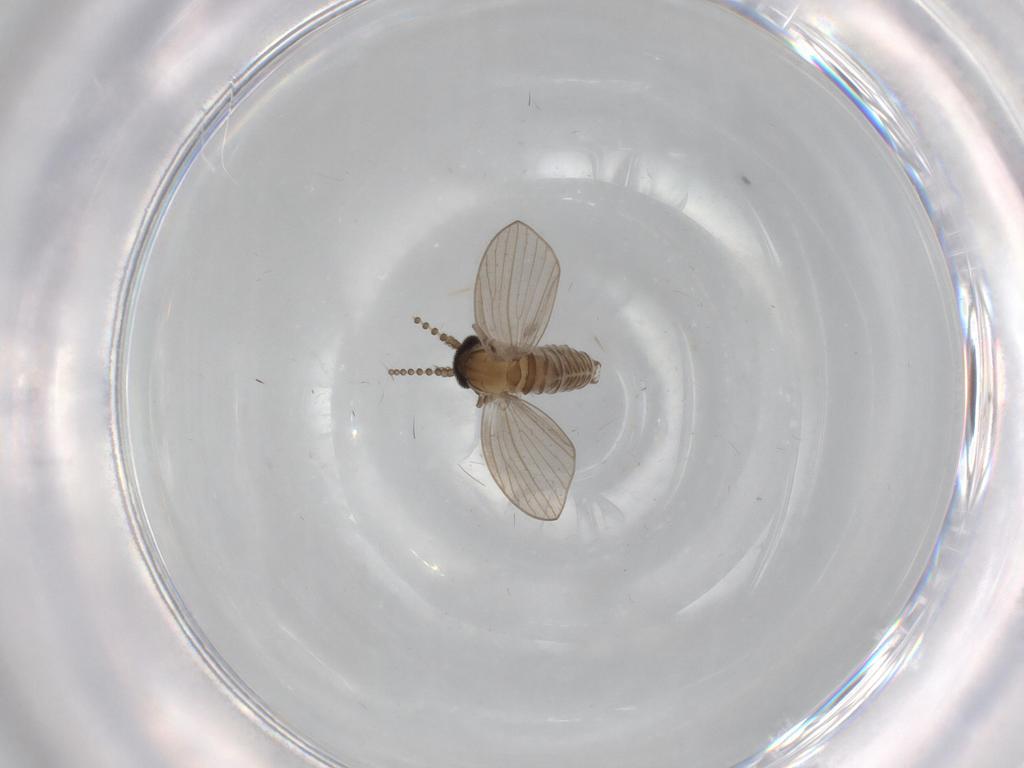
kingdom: Animalia
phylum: Arthropoda
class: Insecta
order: Diptera
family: Psychodidae
